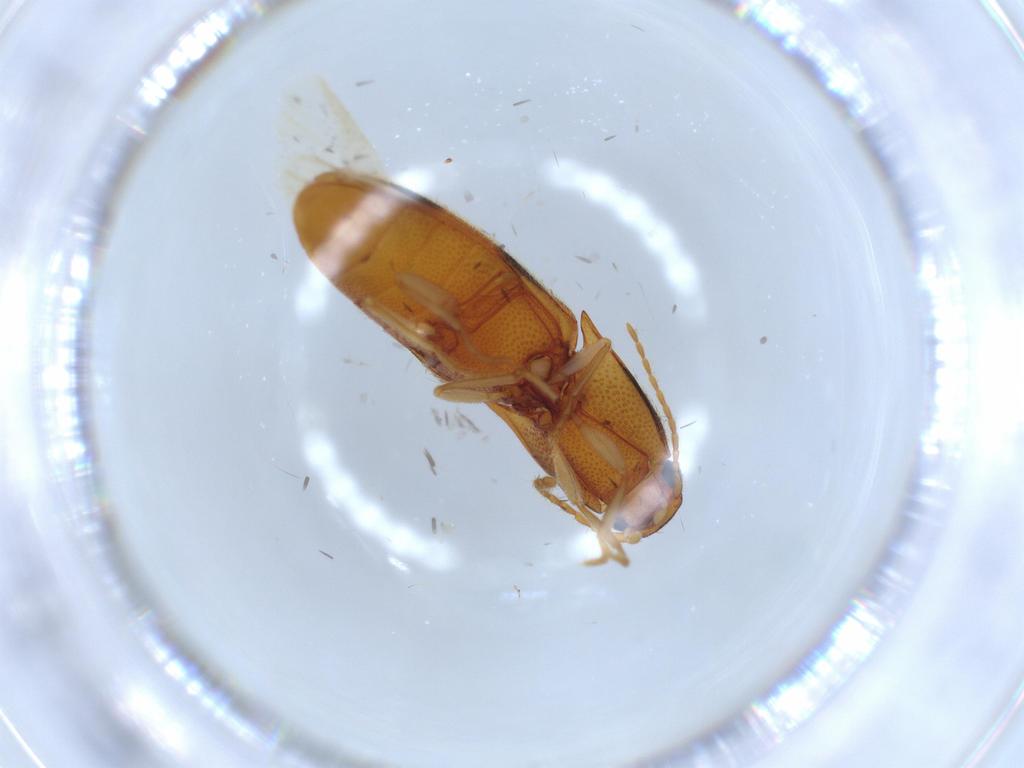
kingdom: Animalia
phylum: Arthropoda
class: Insecta
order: Coleoptera
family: Elateridae
